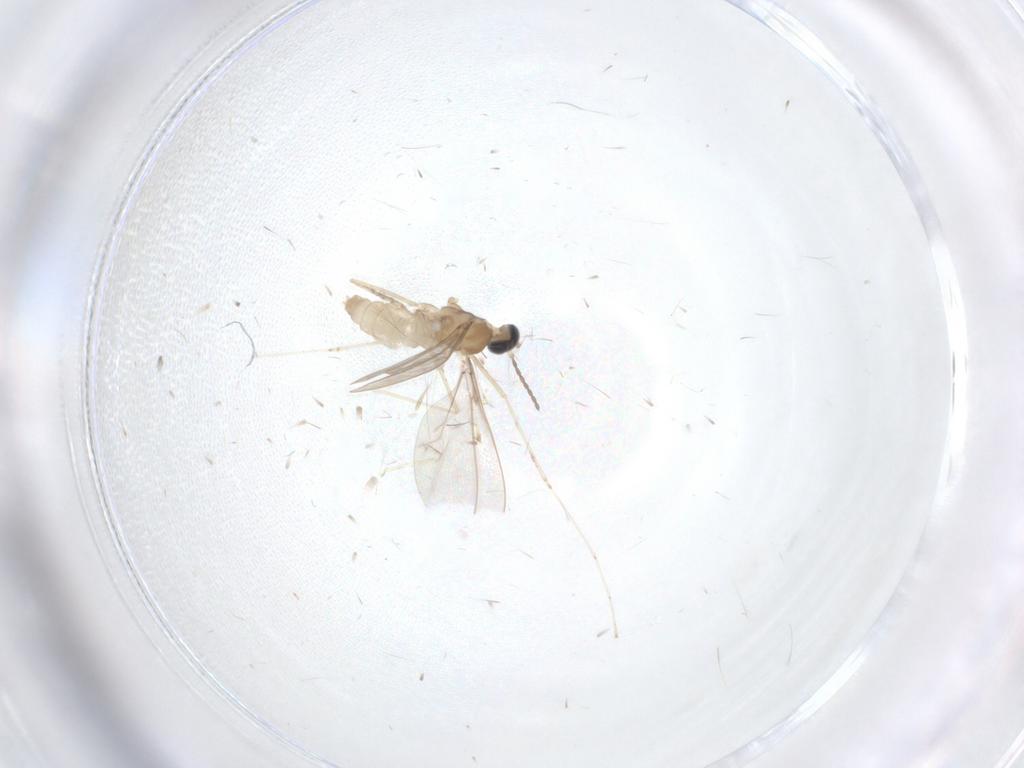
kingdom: Animalia
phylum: Arthropoda
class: Insecta
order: Diptera
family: Cecidomyiidae
